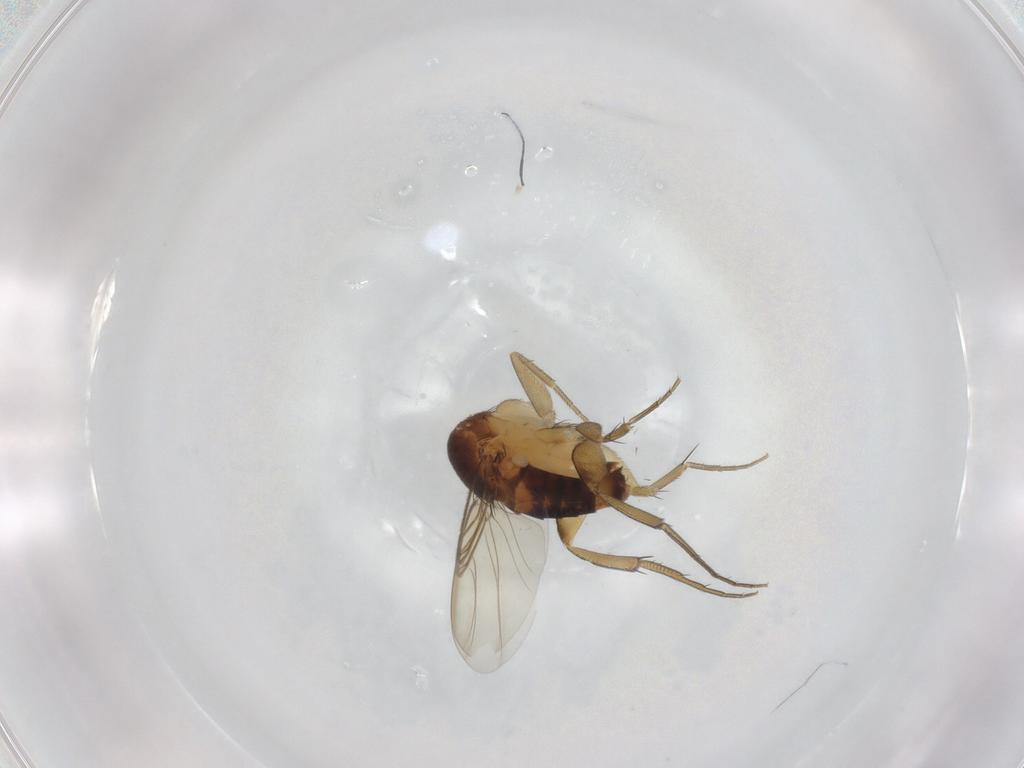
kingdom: Animalia
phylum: Arthropoda
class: Insecta
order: Diptera
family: Phoridae
